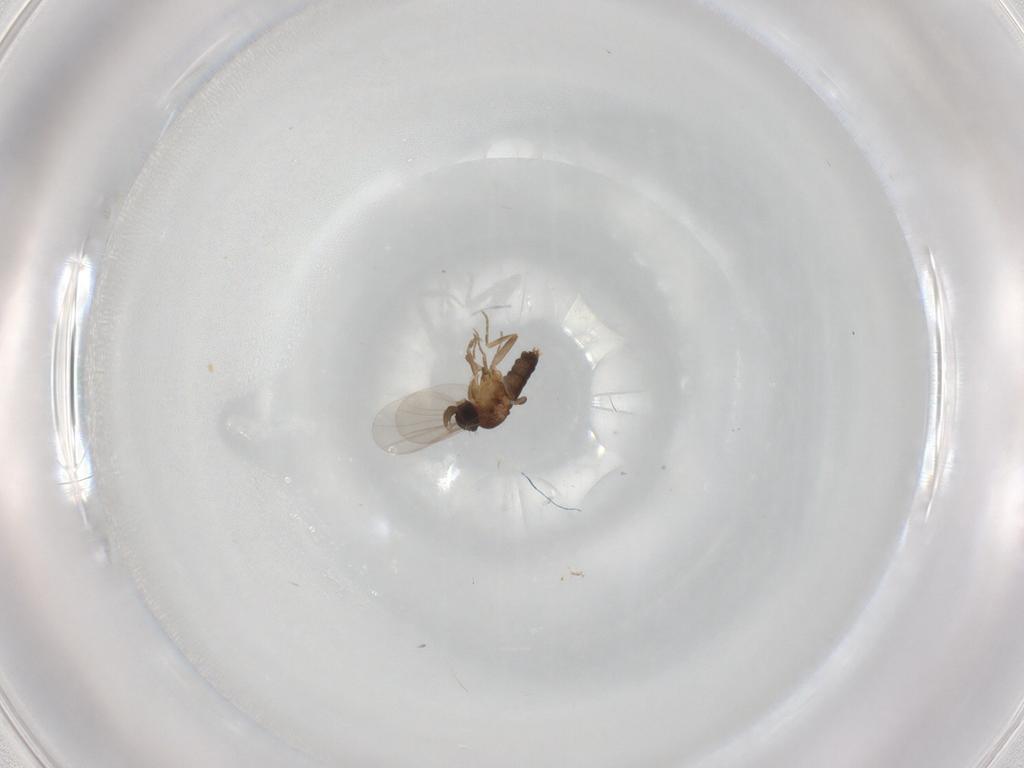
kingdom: Animalia
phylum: Arthropoda
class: Insecta
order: Diptera
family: Phoridae
